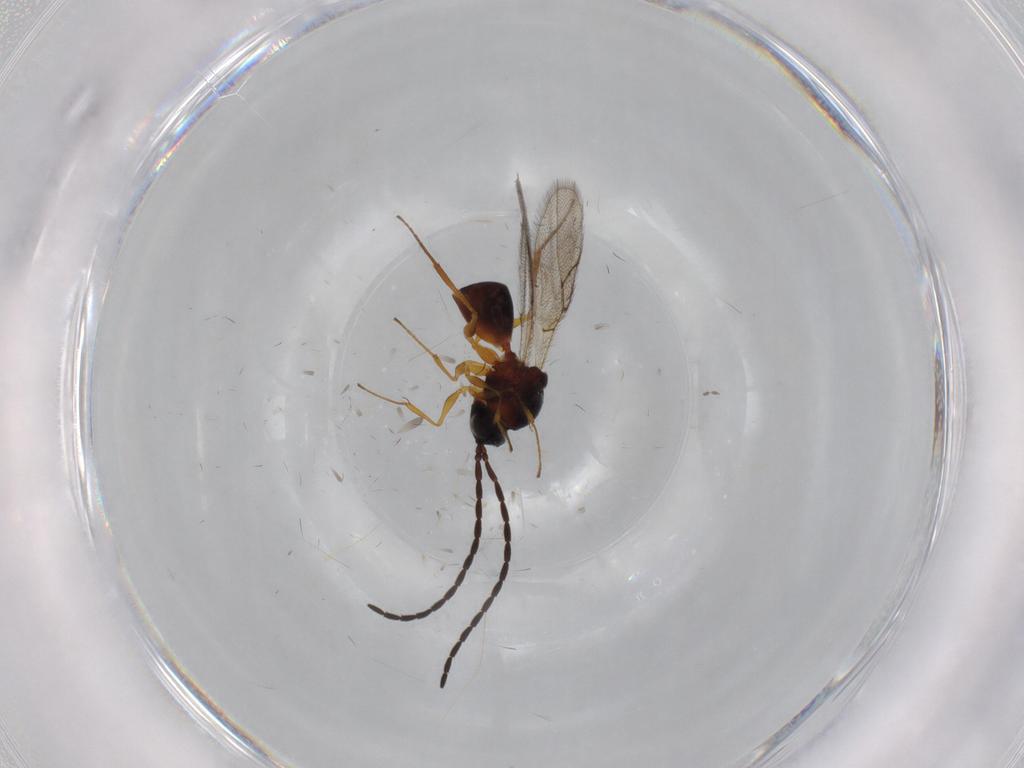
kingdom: Animalia
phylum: Arthropoda
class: Insecta
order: Hymenoptera
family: Figitidae
